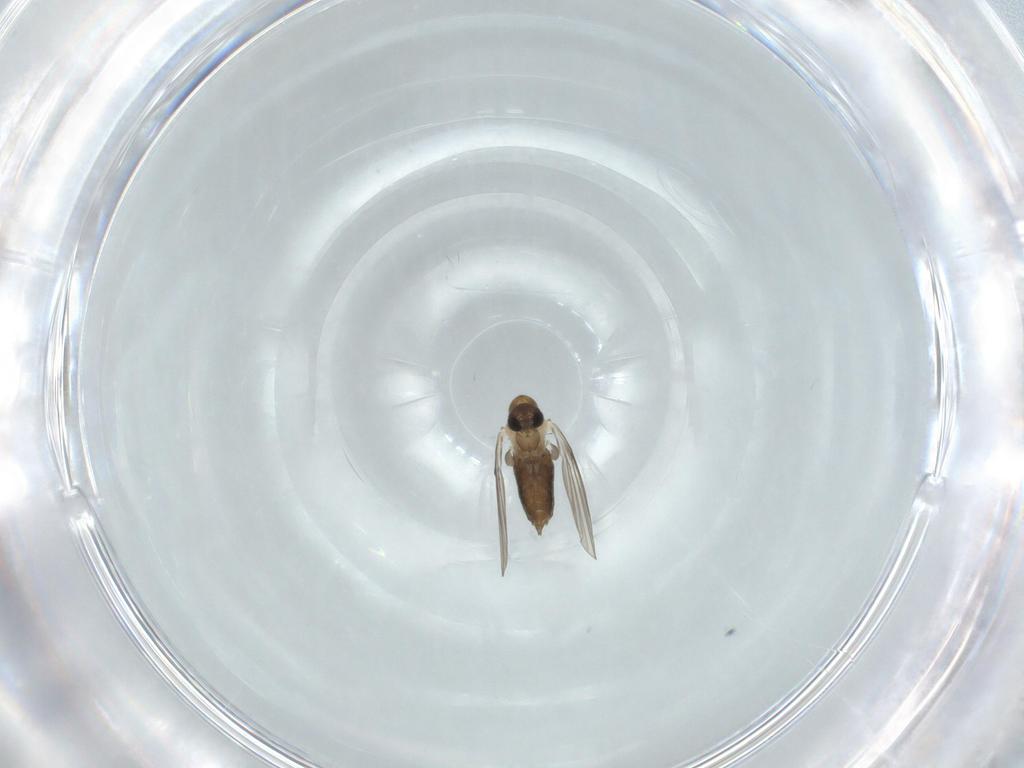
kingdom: Animalia
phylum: Arthropoda
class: Insecta
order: Diptera
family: Psychodidae
